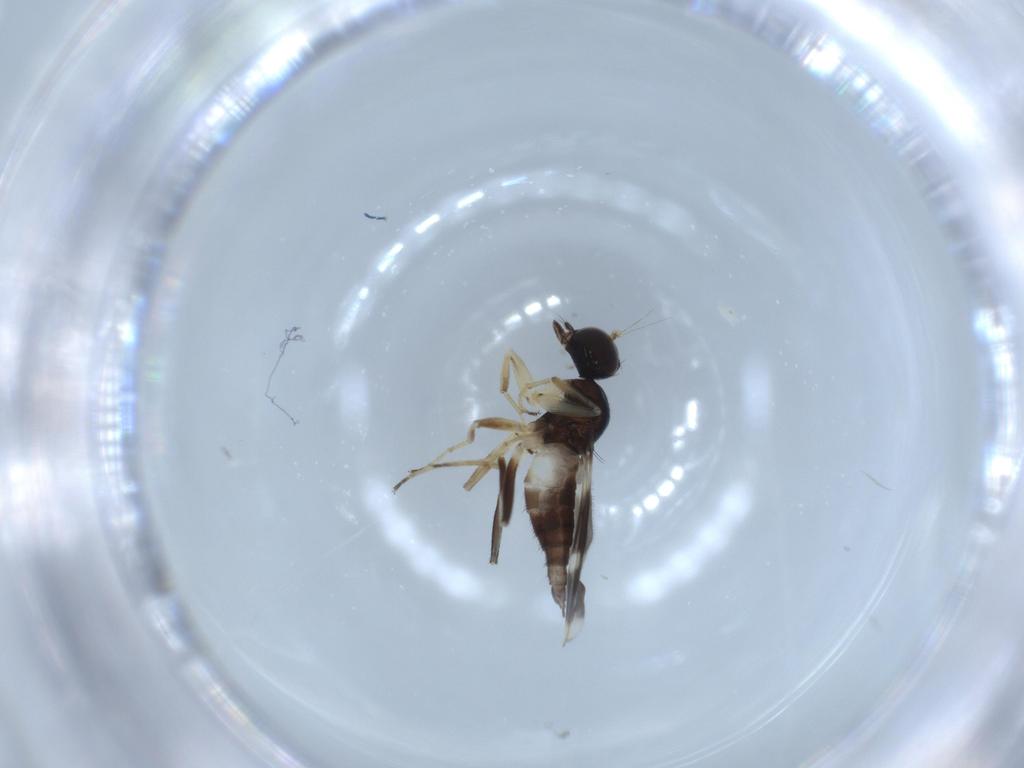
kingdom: Animalia
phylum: Arthropoda
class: Insecta
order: Diptera
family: Hybotidae
